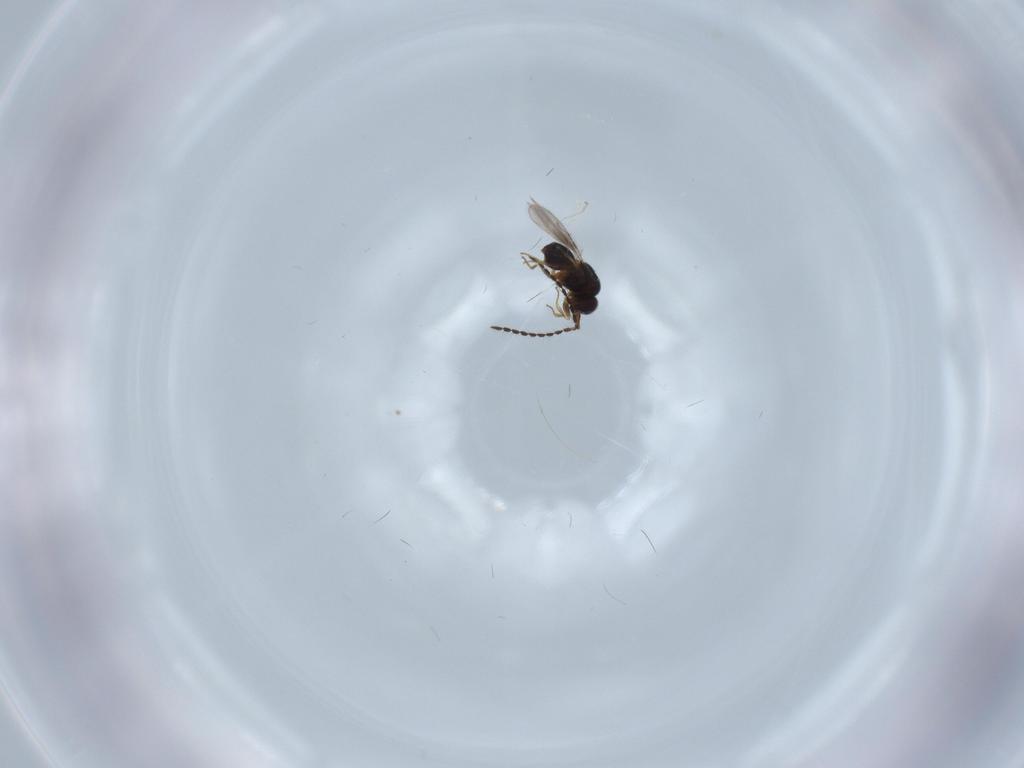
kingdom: Animalia
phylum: Arthropoda
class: Insecta
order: Hymenoptera
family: Ceraphronidae
